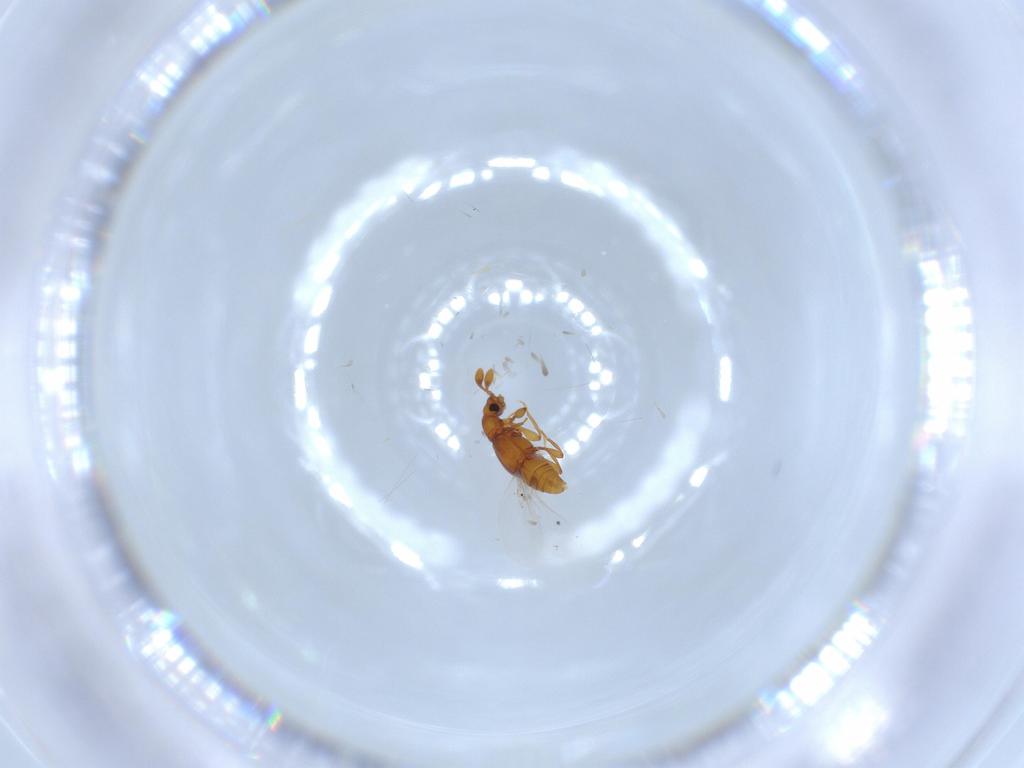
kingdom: Animalia
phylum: Arthropoda
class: Insecta
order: Coleoptera
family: Staphylinidae
